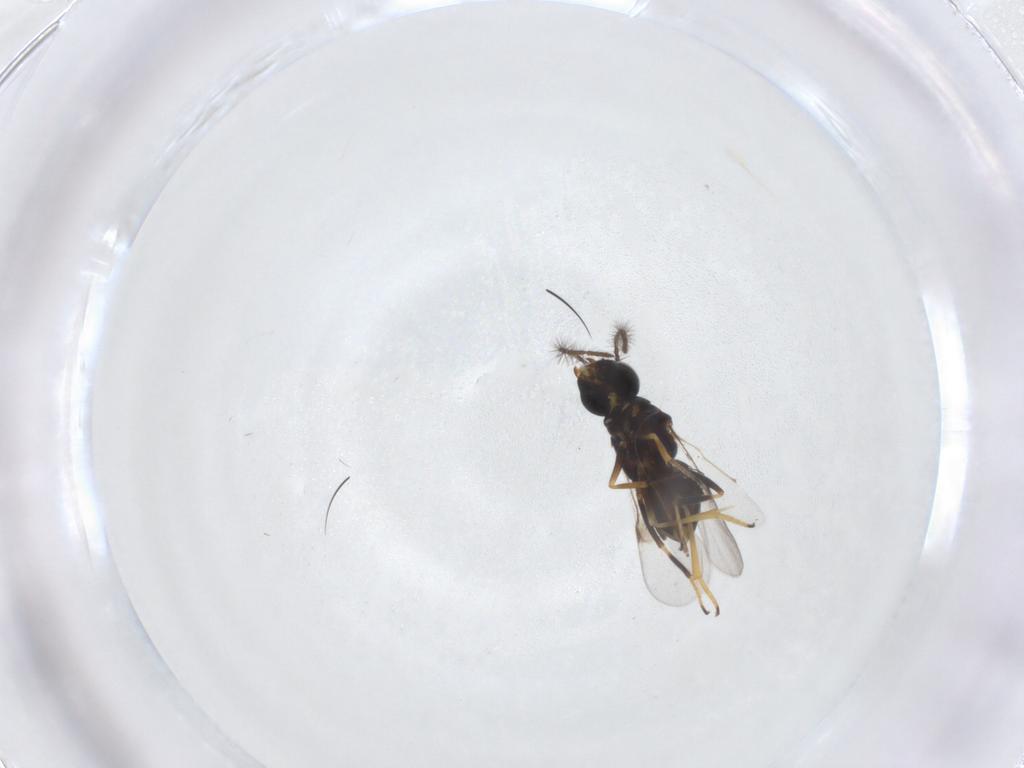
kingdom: Animalia
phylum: Arthropoda
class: Insecta
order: Hymenoptera
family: Encyrtidae
